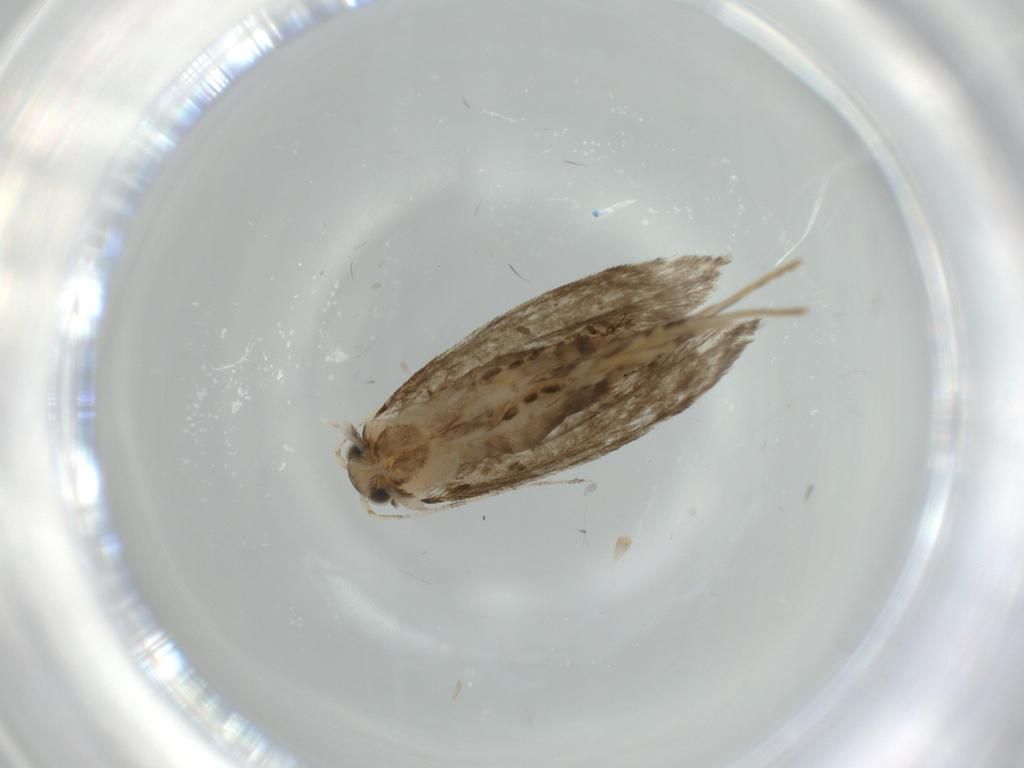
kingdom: Animalia
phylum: Arthropoda
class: Insecta
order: Lepidoptera
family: Tineidae
